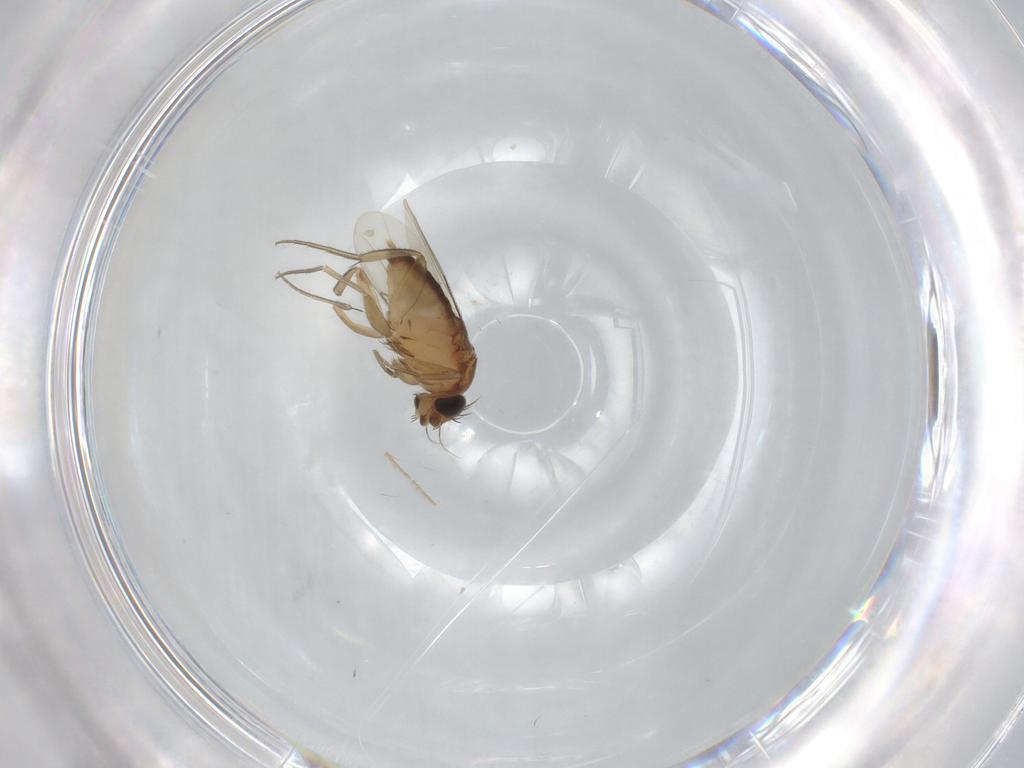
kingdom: Animalia
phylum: Arthropoda
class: Insecta
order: Diptera
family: Phoridae
